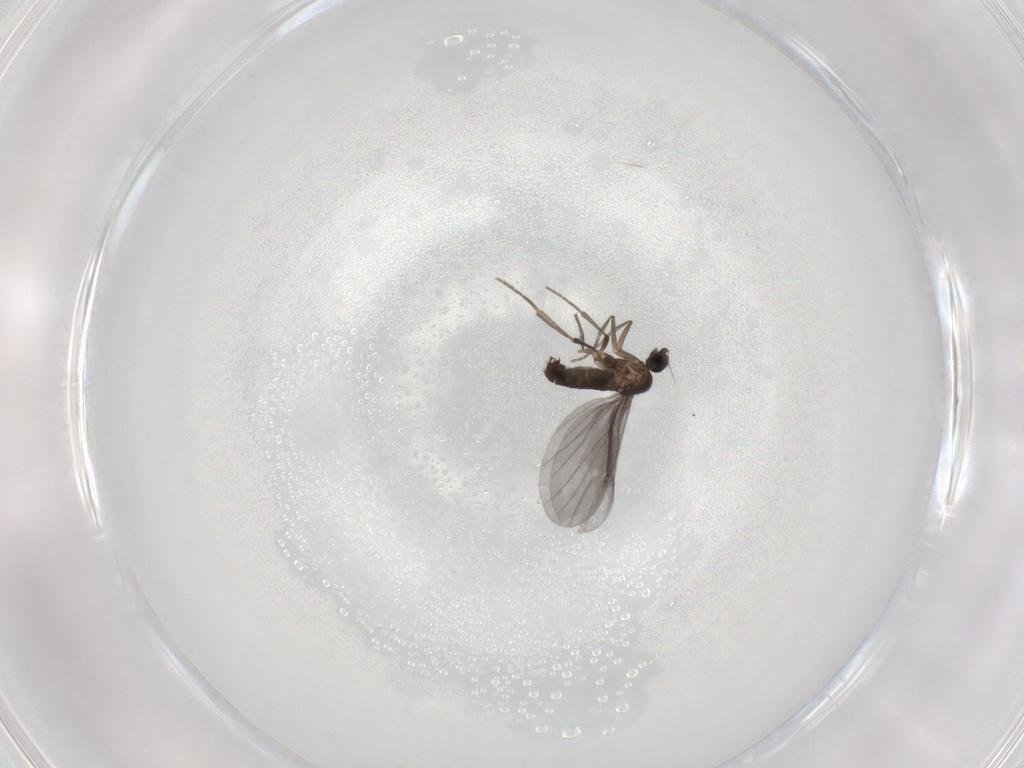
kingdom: Animalia
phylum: Arthropoda
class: Insecta
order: Diptera
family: Phoridae
